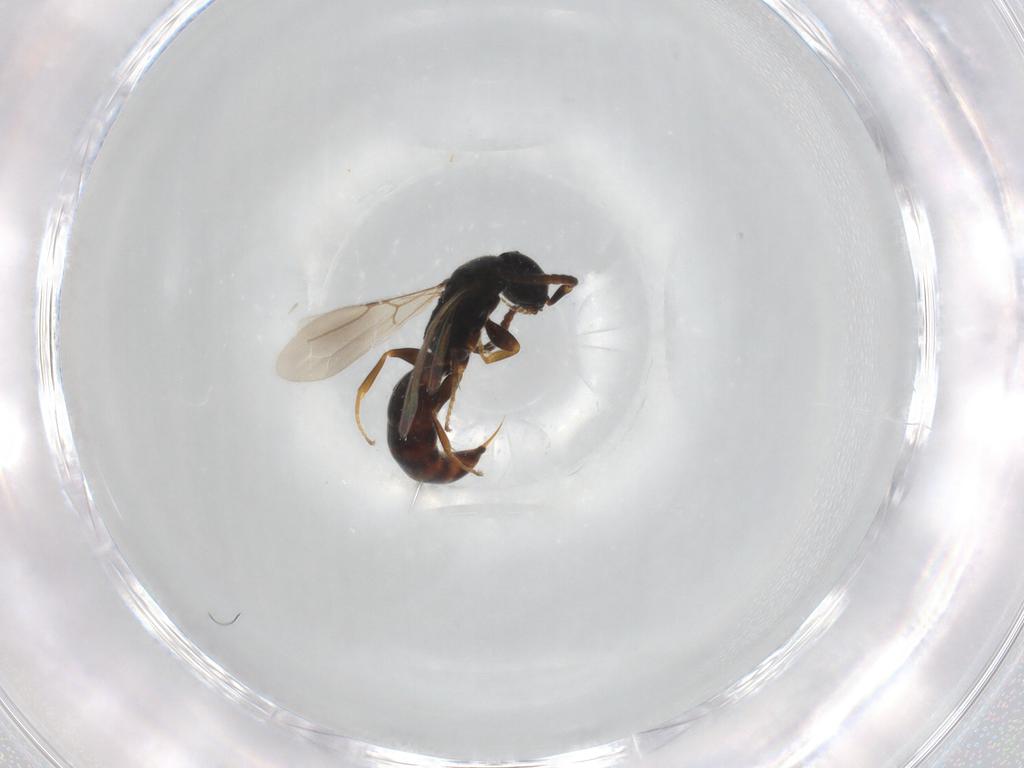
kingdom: Animalia
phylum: Arthropoda
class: Insecta
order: Hymenoptera
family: Bethylidae
